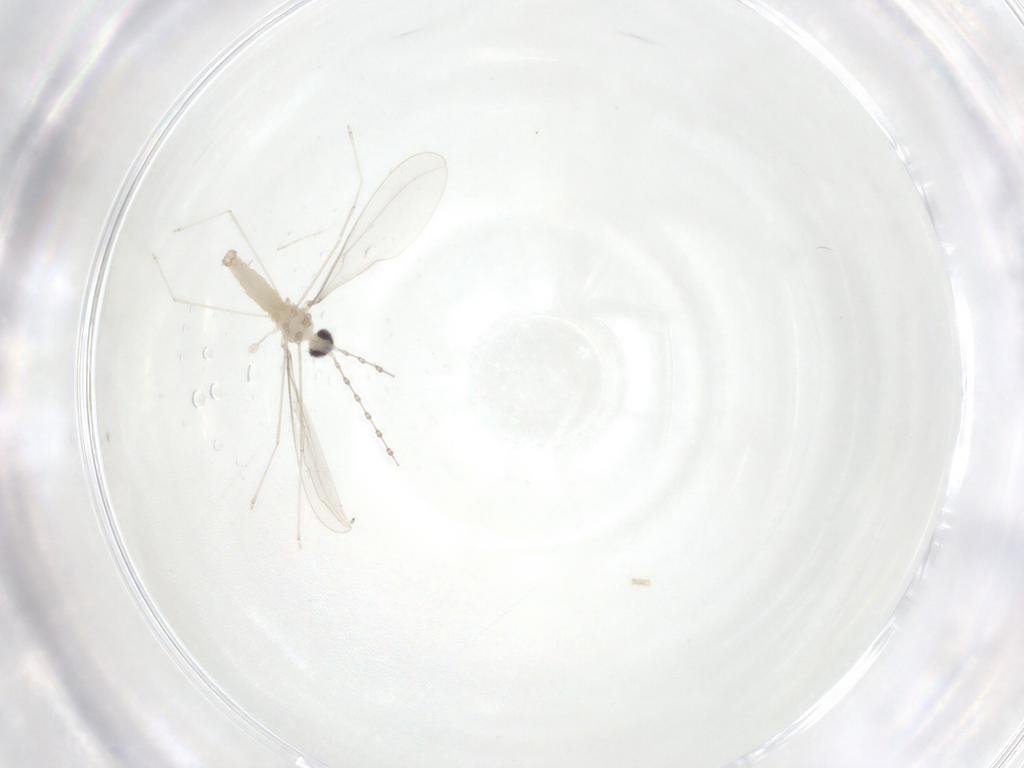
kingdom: Animalia
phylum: Arthropoda
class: Insecta
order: Diptera
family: Cecidomyiidae
